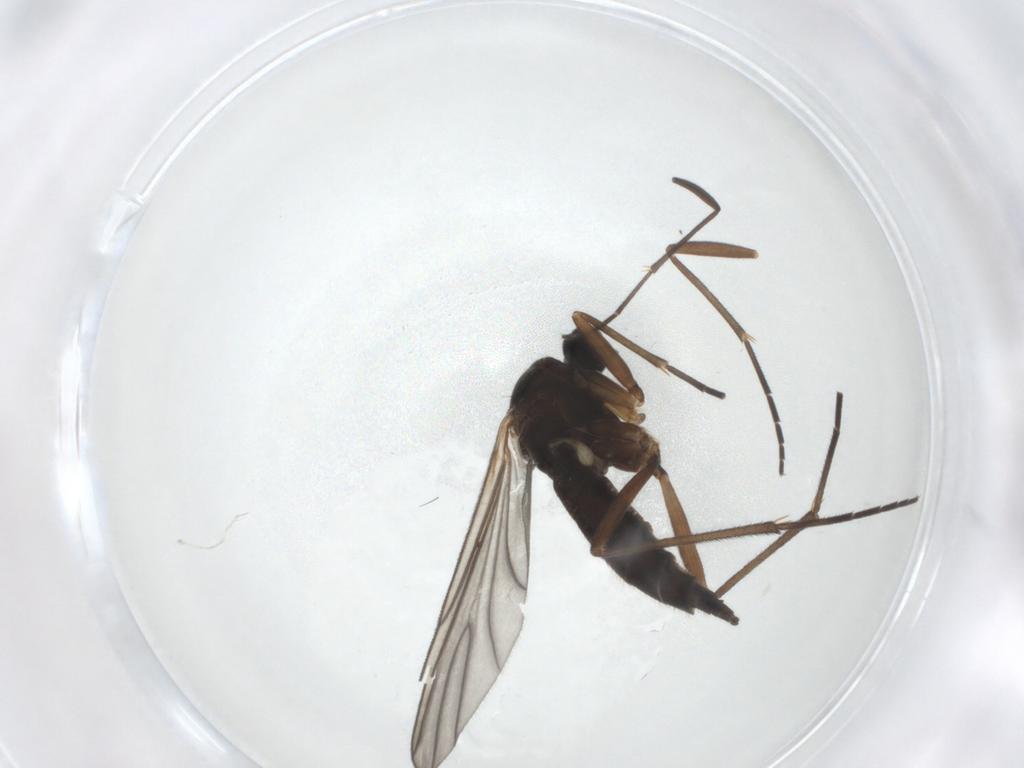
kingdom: Animalia
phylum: Arthropoda
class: Insecta
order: Diptera
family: Sciaridae
